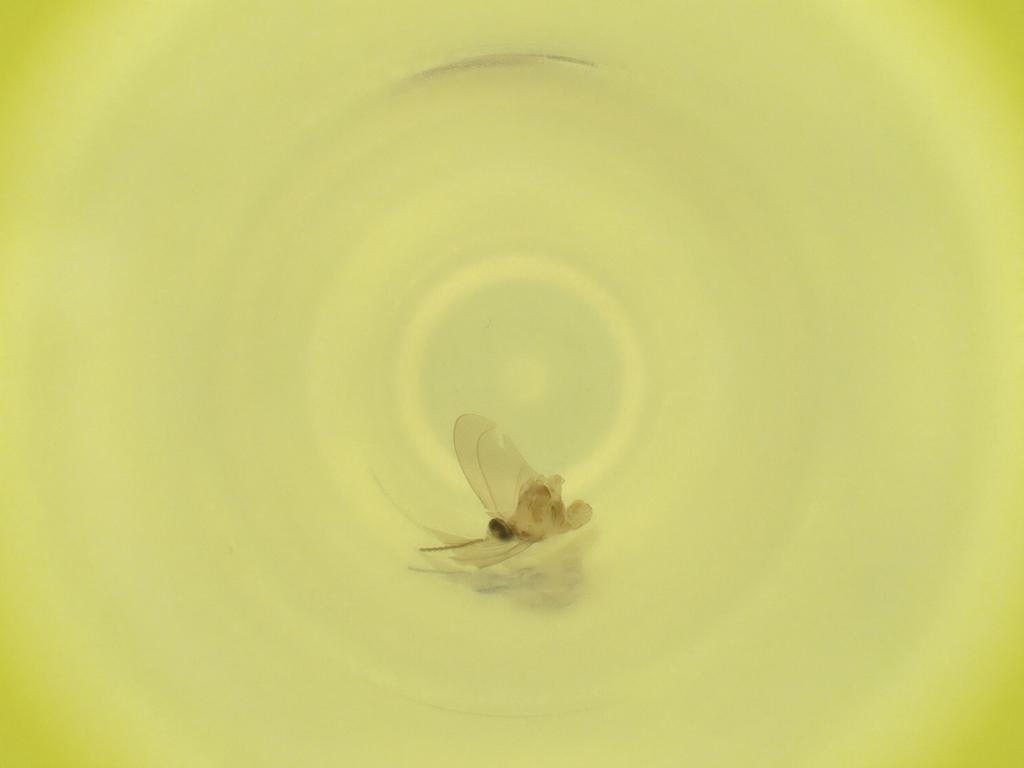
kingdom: Animalia
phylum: Arthropoda
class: Insecta
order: Diptera
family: Cecidomyiidae
